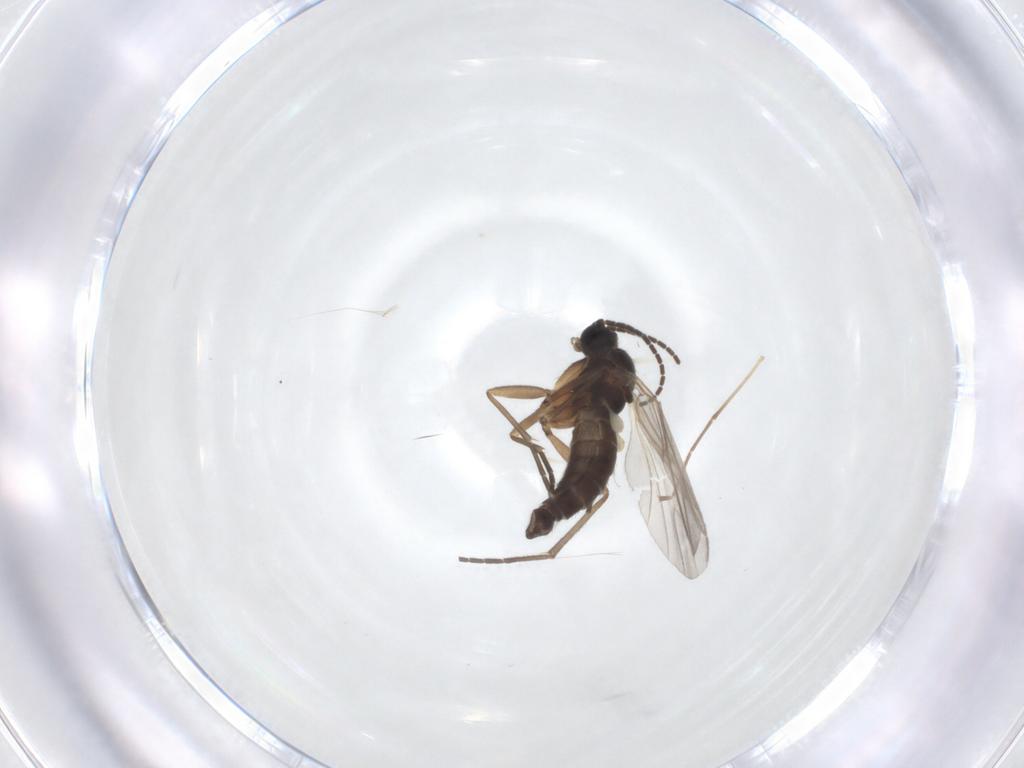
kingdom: Animalia
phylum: Arthropoda
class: Insecta
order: Diptera
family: Sciaridae
